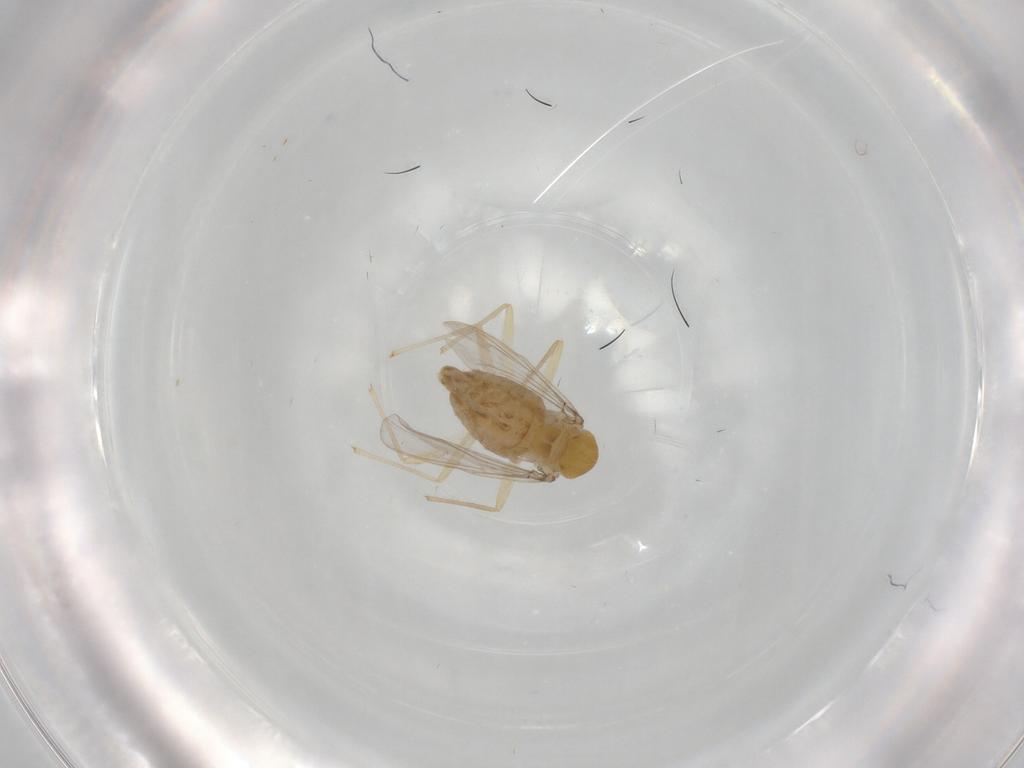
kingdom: Animalia
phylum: Arthropoda
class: Insecta
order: Diptera
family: Chironomidae
